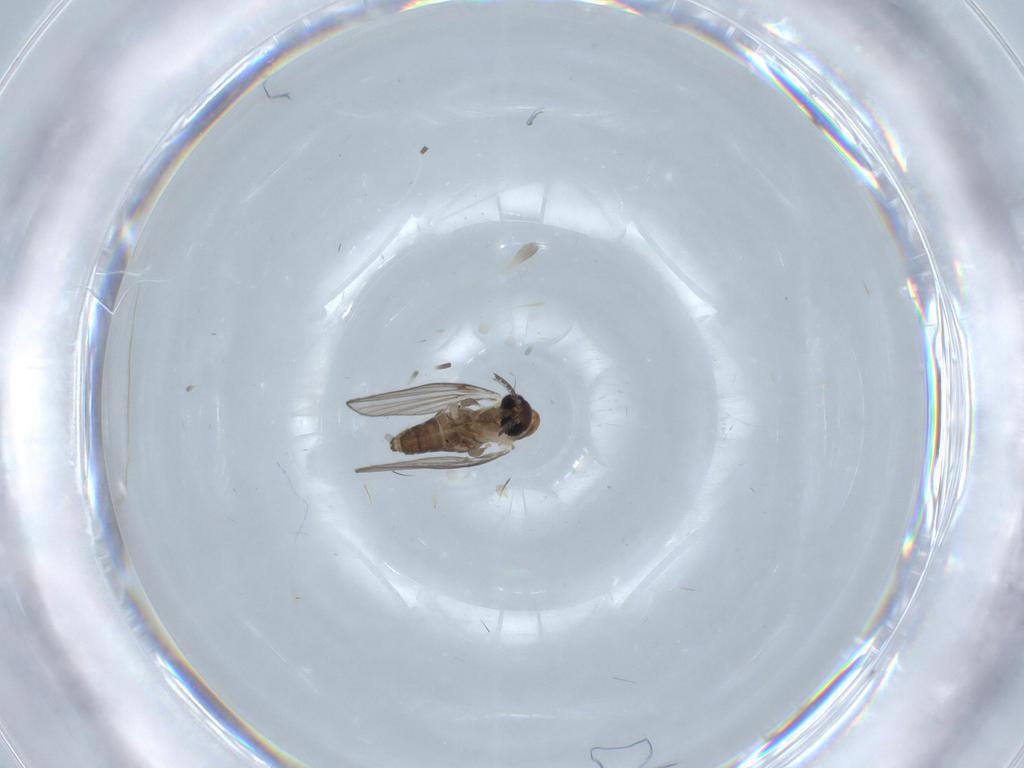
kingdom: Animalia
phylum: Arthropoda
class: Insecta
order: Diptera
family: Psychodidae
